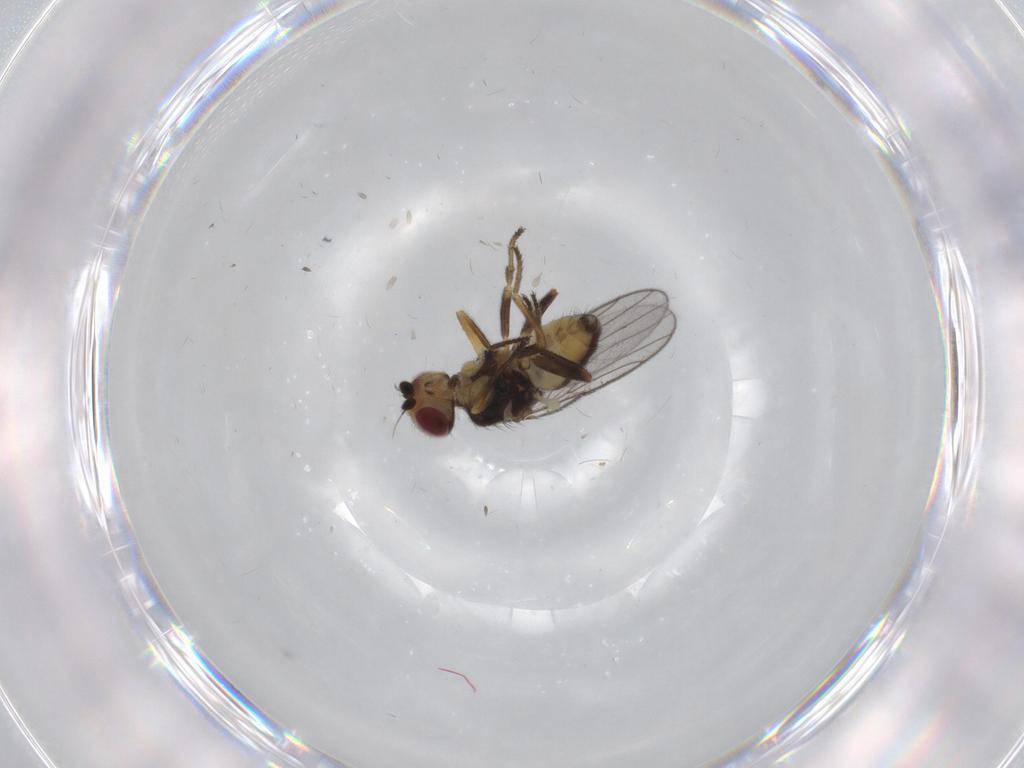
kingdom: Animalia
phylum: Arthropoda
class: Insecta
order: Diptera
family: Chloropidae
